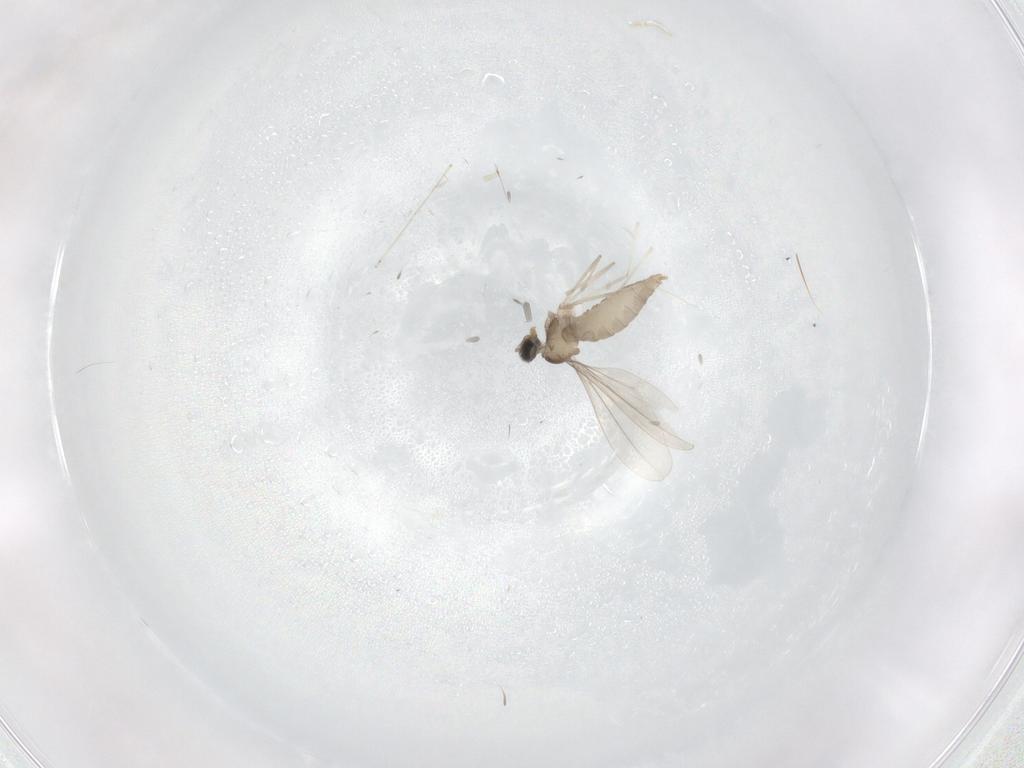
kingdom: Animalia
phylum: Arthropoda
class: Insecta
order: Diptera
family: Cecidomyiidae
